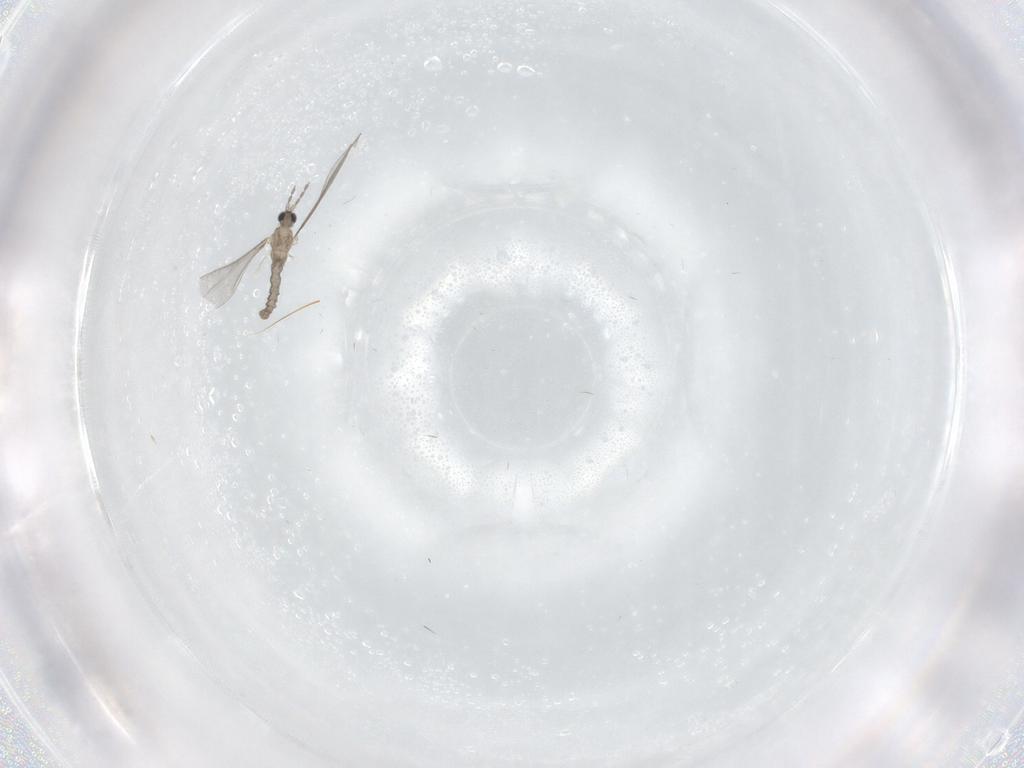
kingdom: Animalia
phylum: Arthropoda
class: Insecta
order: Diptera
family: Cecidomyiidae
